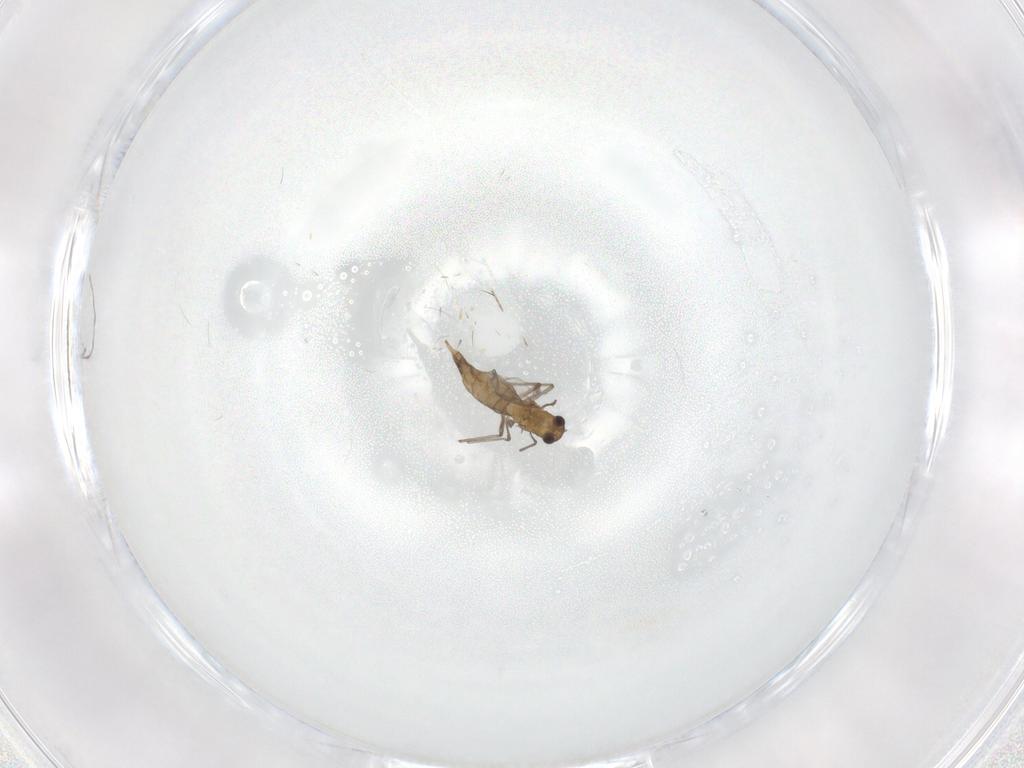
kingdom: Animalia
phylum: Arthropoda
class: Insecta
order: Diptera
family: Chironomidae
